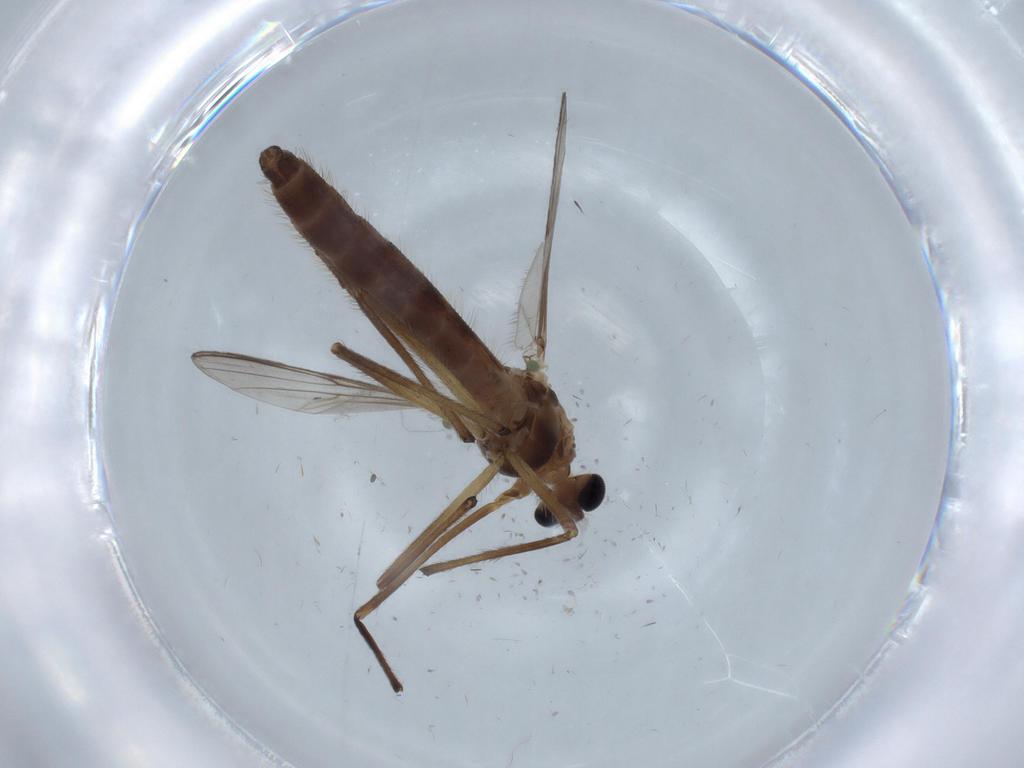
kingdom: Animalia
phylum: Arthropoda
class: Insecta
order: Diptera
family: Chironomidae
